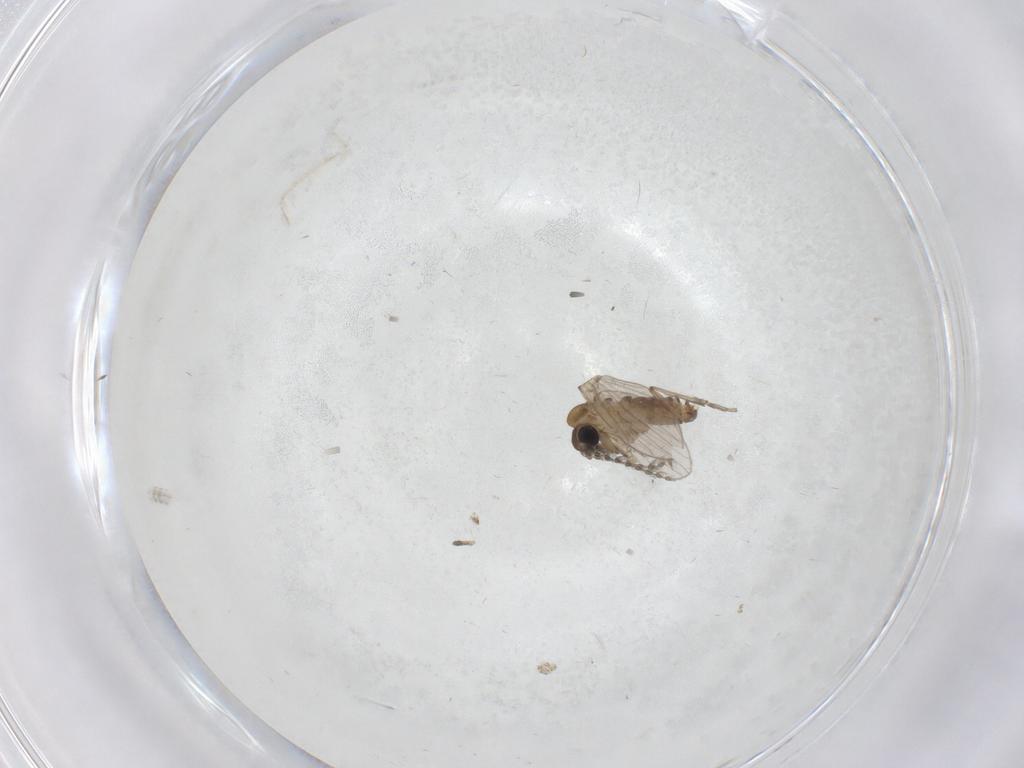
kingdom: Animalia
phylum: Arthropoda
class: Insecta
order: Diptera
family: Psychodidae
